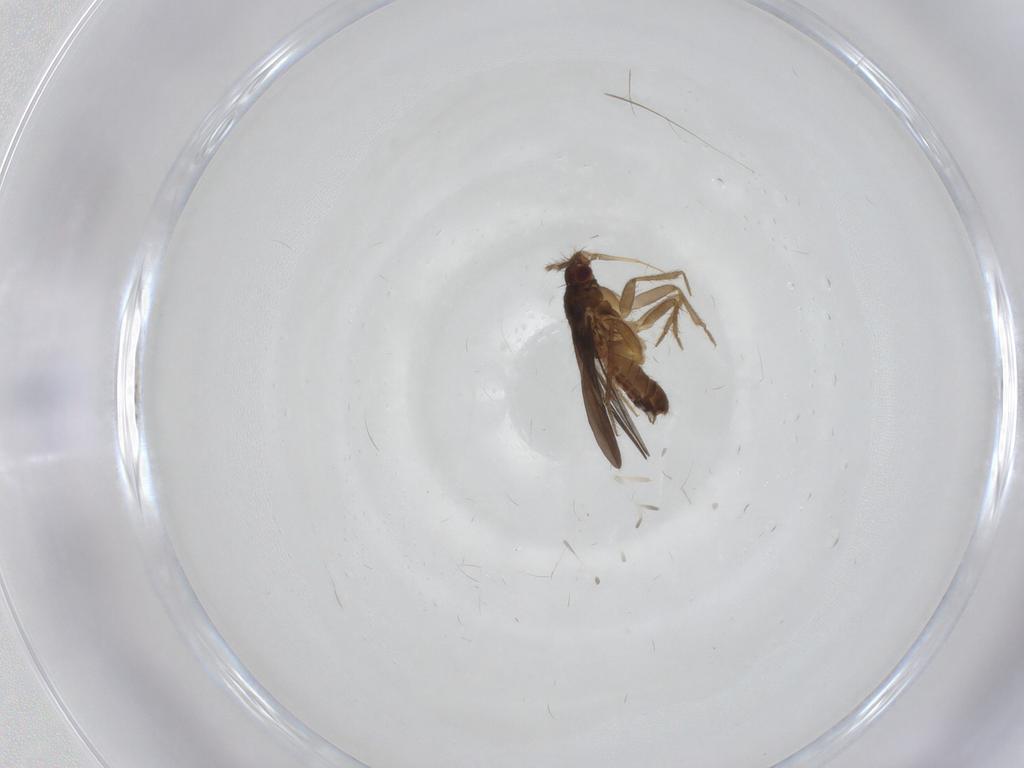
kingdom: Animalia
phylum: Arthropoda
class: Insecta
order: Hemiptera
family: Ceratocombidae
